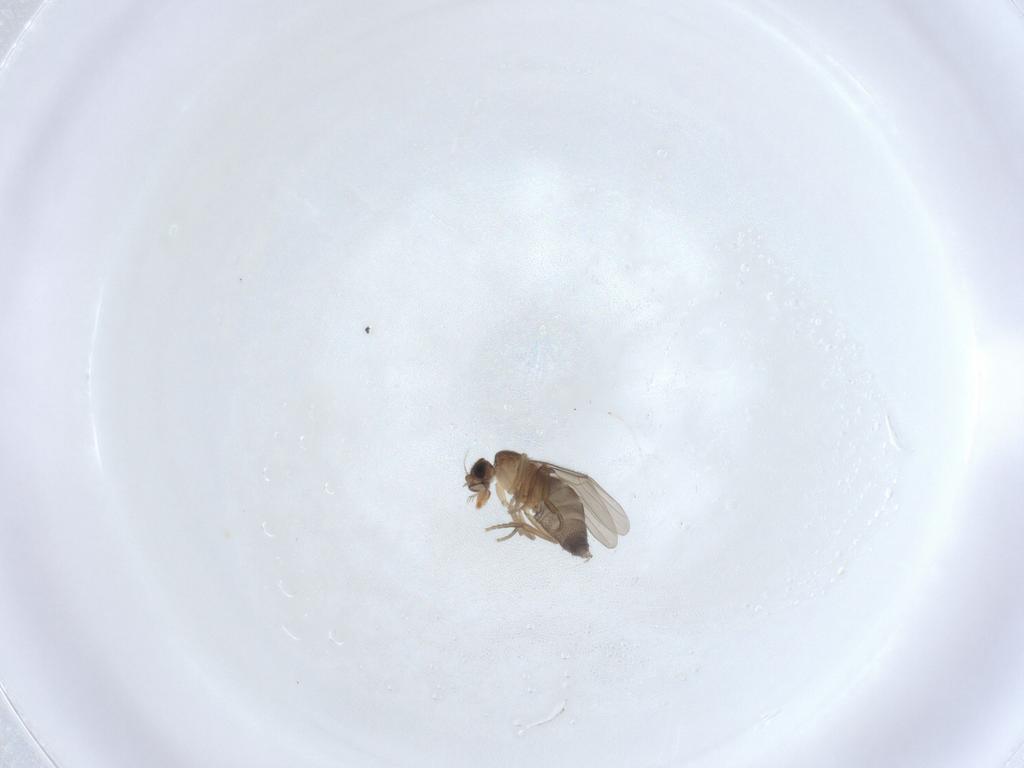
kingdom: Animalia
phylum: Arthropoda
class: Insecta
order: Diptera
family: Phoridae
